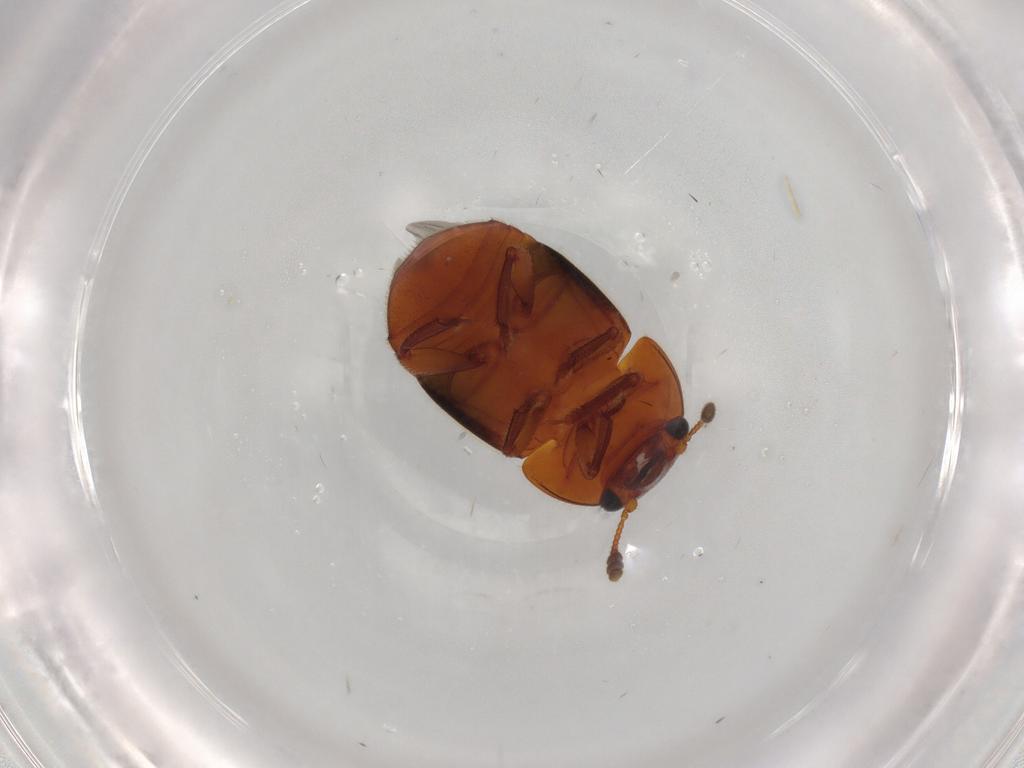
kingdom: Animalia
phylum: Arthropoda
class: Insecta
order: Coleoptera
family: Nitidulidae
